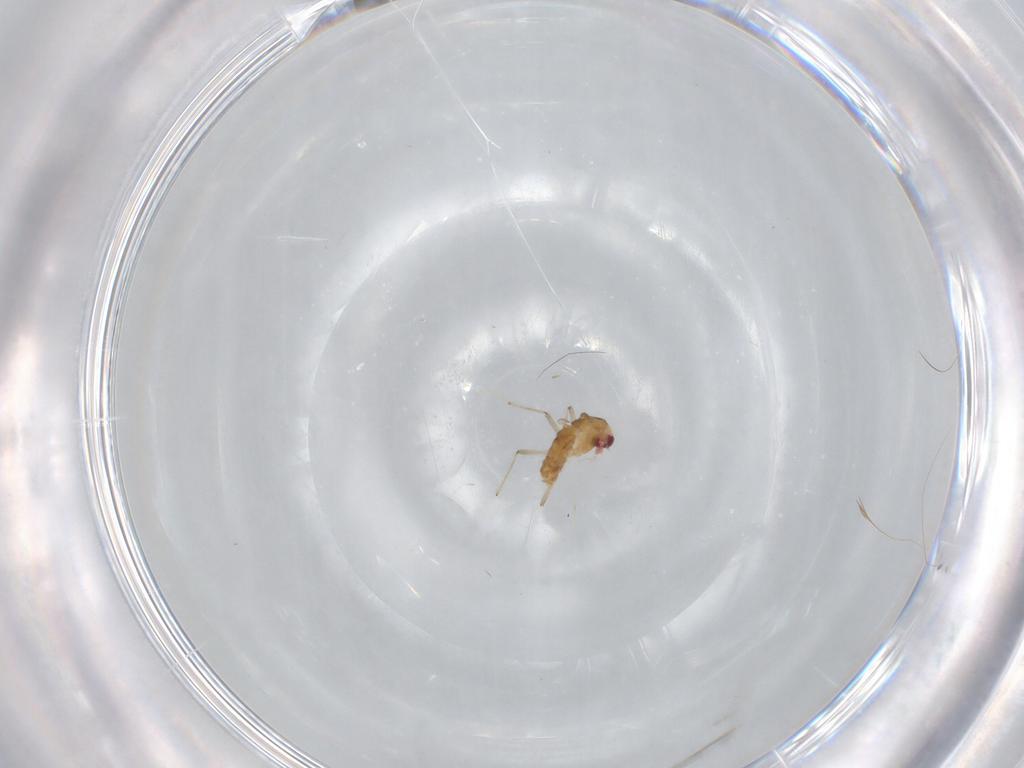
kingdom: Animalia
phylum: Arthropoda
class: Insecta
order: Diptera
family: Chironomidae
